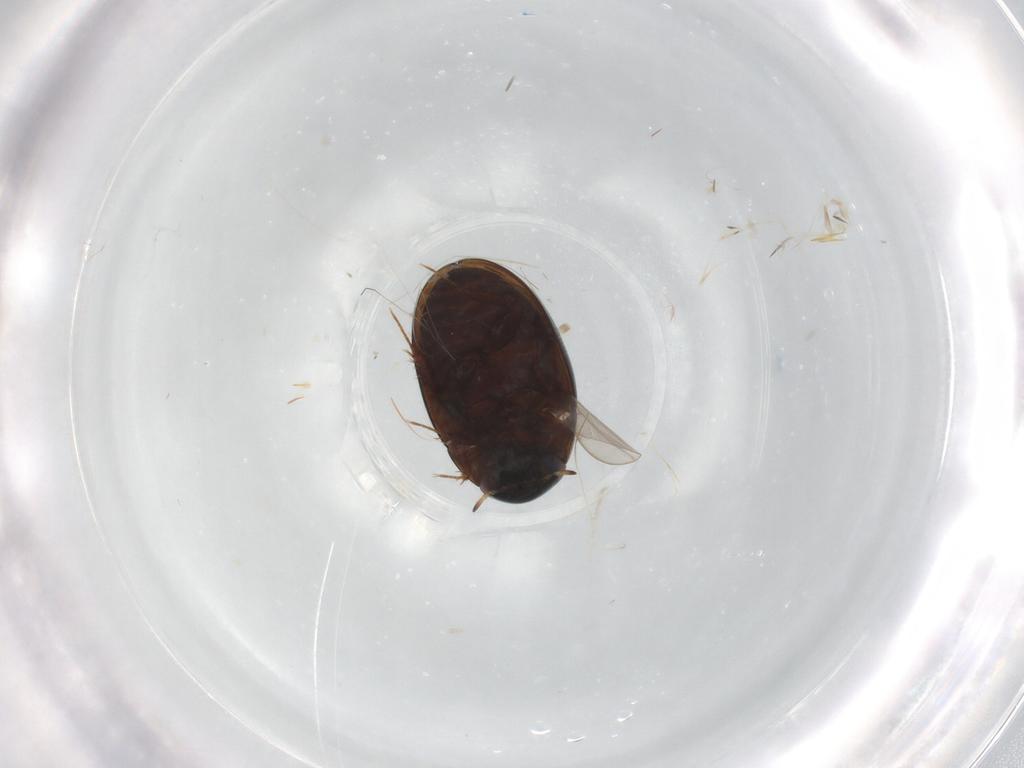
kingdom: Animalia
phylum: Arthropoda
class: Insecta
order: Coleoptera
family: Hydrophilidae
